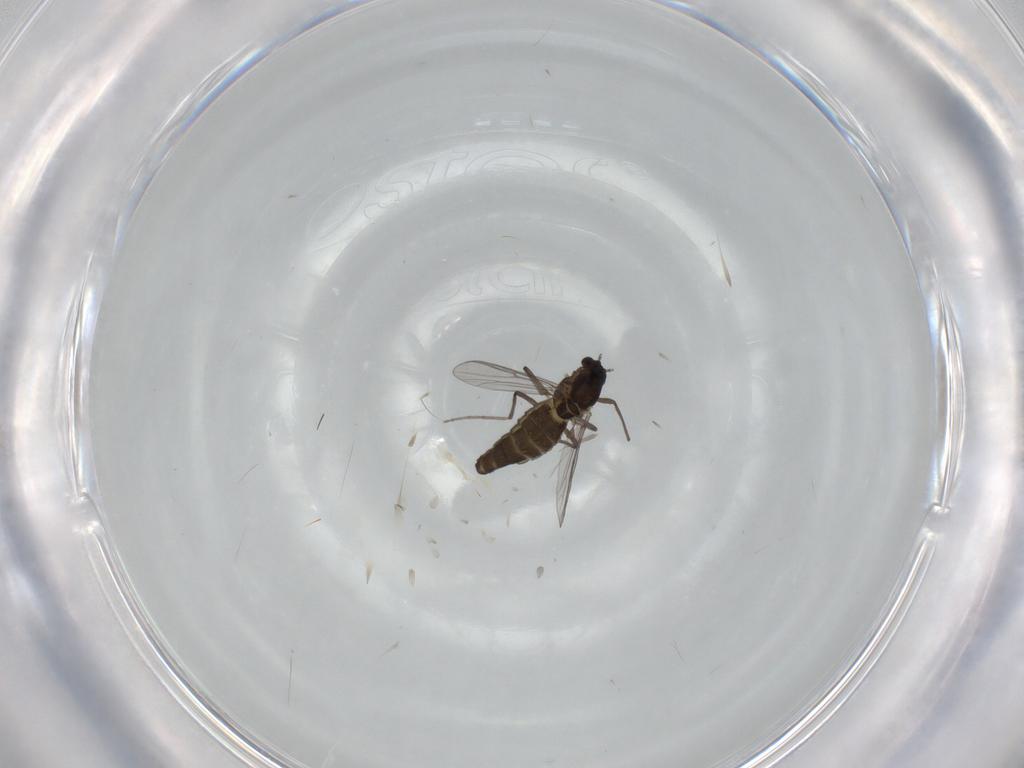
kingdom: Animalia
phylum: Arthropoda
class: Insecta
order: Diptera
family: Chironomidae
